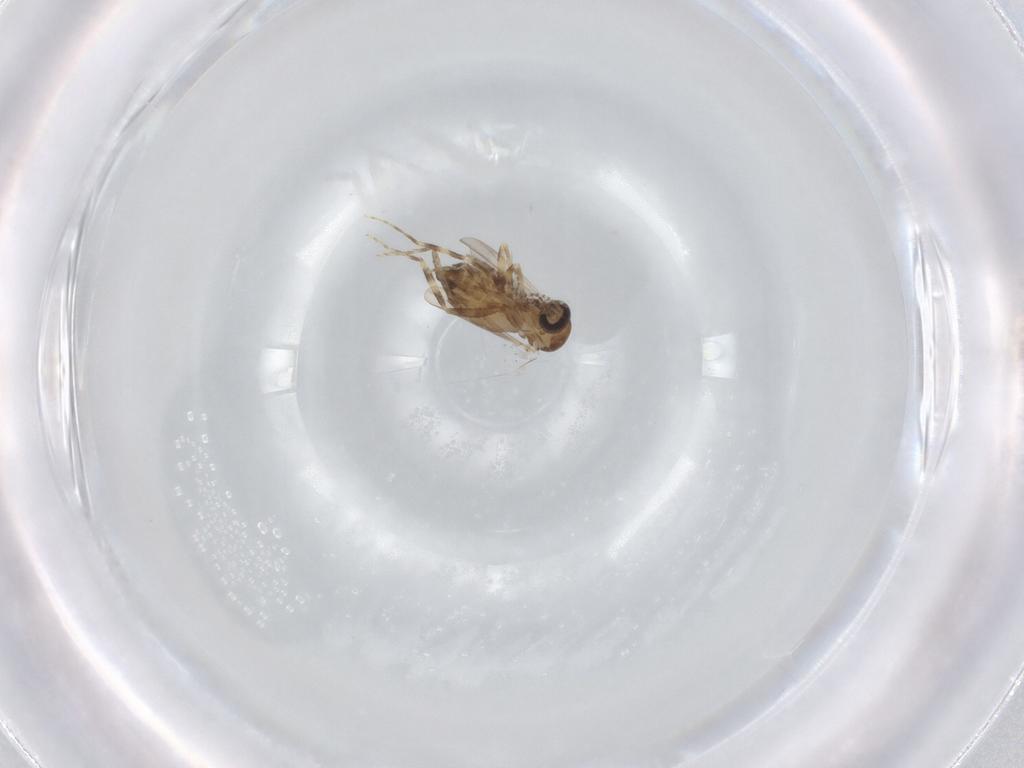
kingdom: Animalia
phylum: Arthropoda
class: Insecta
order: Diptera
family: Ceratopogonidae
